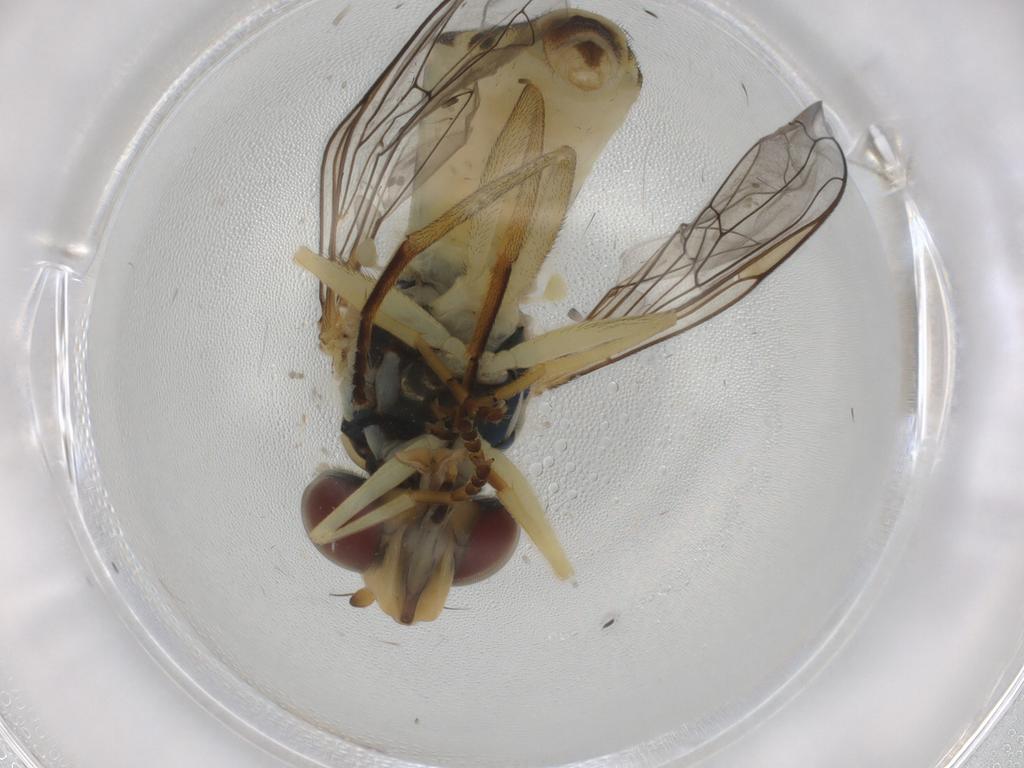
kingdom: Animalia
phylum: Arthropoda
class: Insecta
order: Diptera
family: Syrphidae
